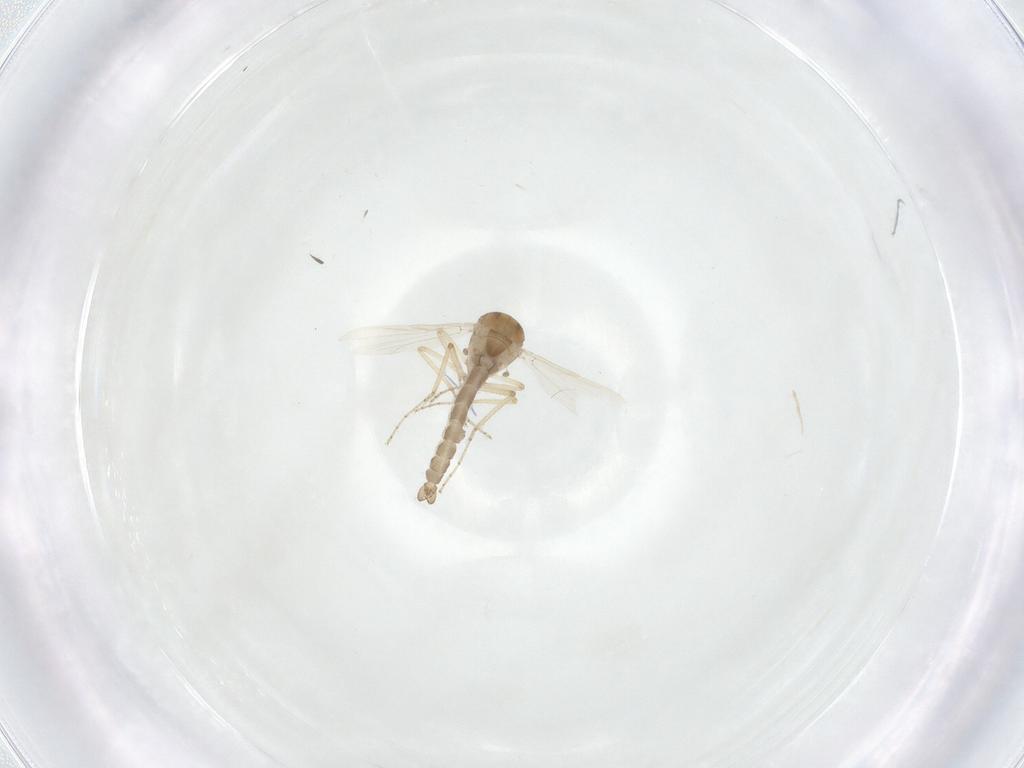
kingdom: Animalia
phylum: Arthropoda
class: Insecta
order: Diptera
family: Ceratopogonidae
